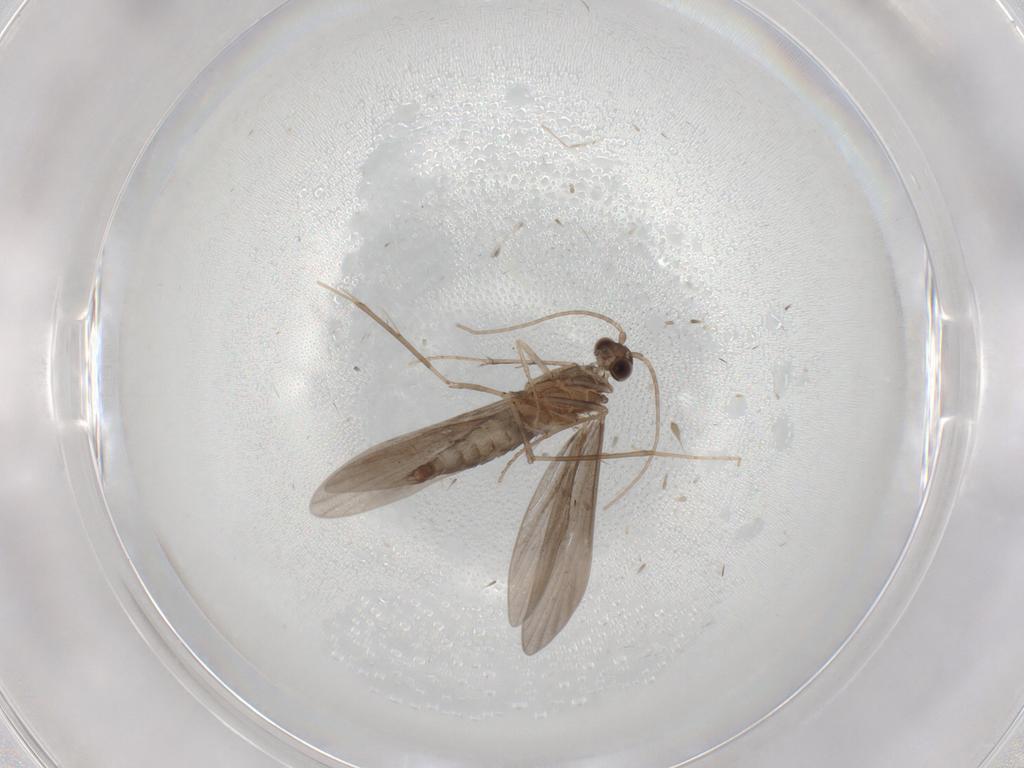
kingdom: Animalia
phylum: Arthropoda
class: Insecta
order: Trichoptera
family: Xiphocentronidae
